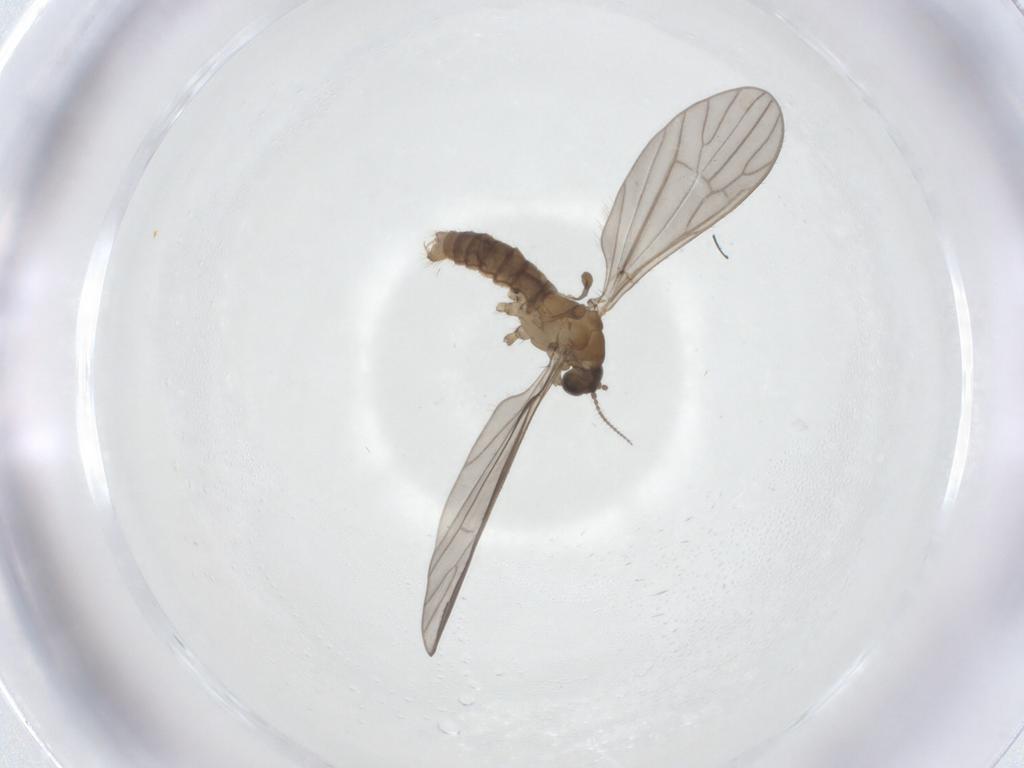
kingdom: Animalia
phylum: Arthropoda
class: Insecta
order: Diptera
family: Limoniidae
